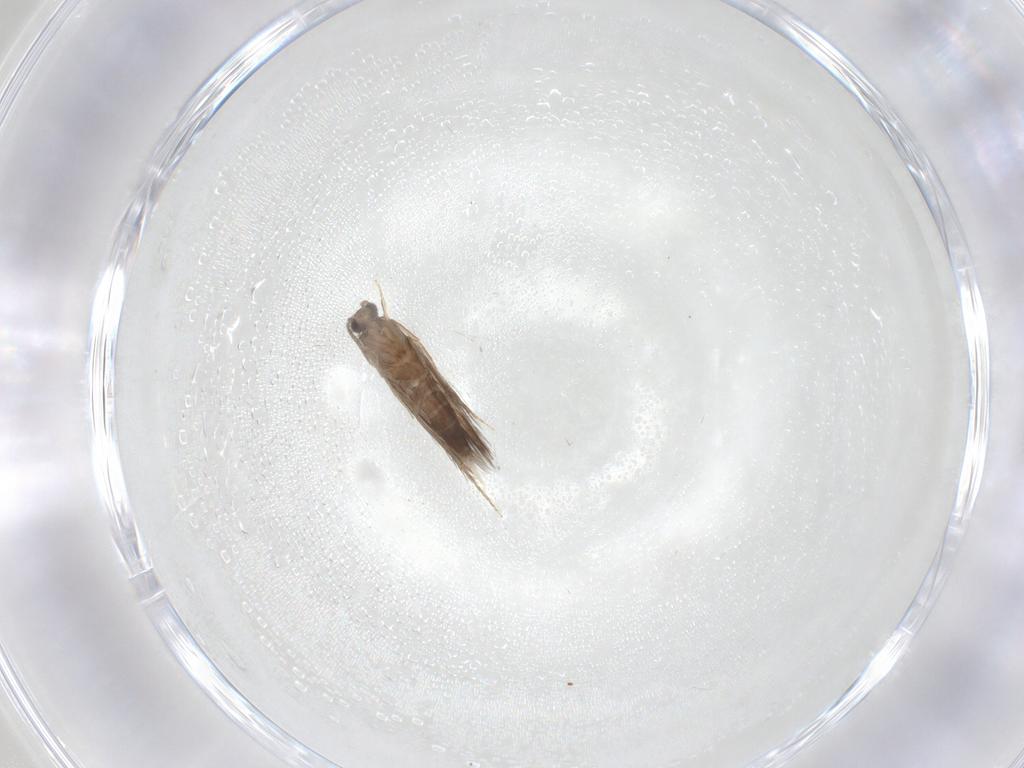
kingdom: Animalia
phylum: Arthropoda
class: Insecta
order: Trichoptera
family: Hydroptilidae
